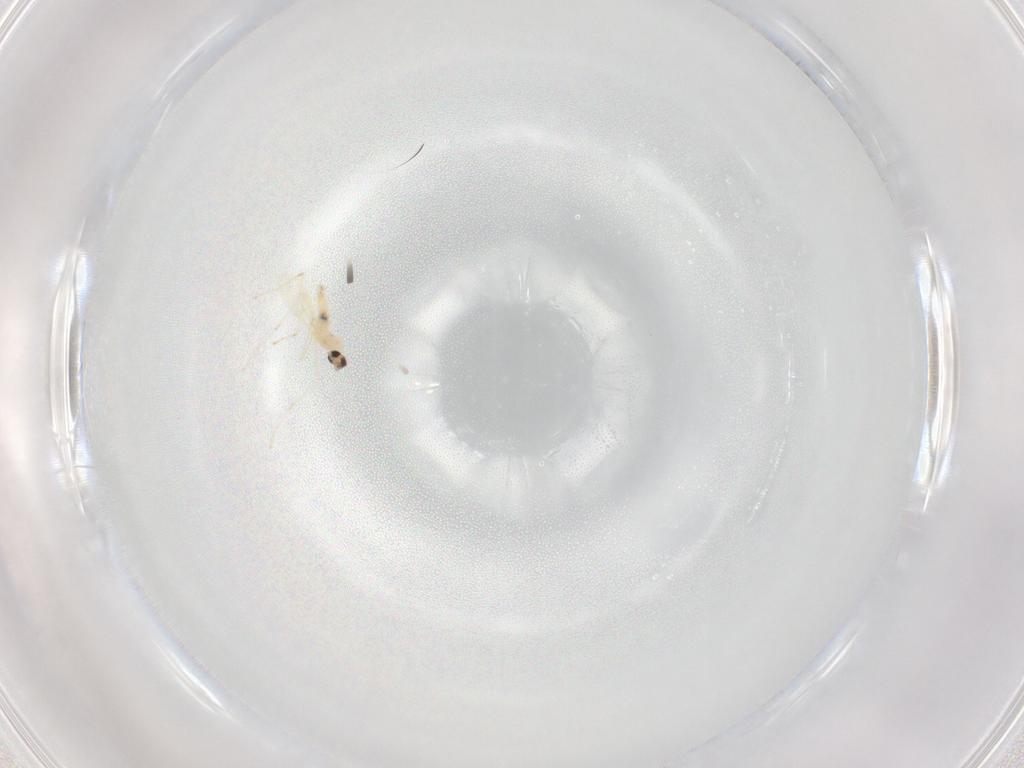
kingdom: Animalia
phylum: Arthropoda
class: Insecta
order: Diptera
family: Cecidomyiidae
